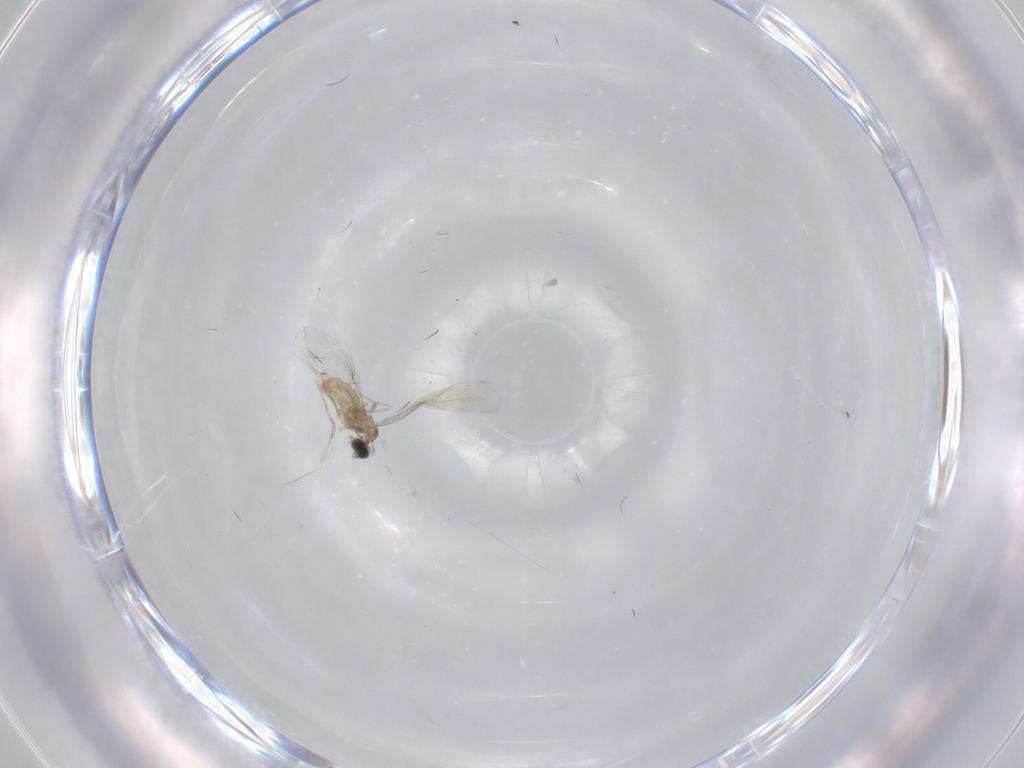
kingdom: Animalia
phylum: Arthropoda
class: Insecta
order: Diptera
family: Cecidomyiidae
